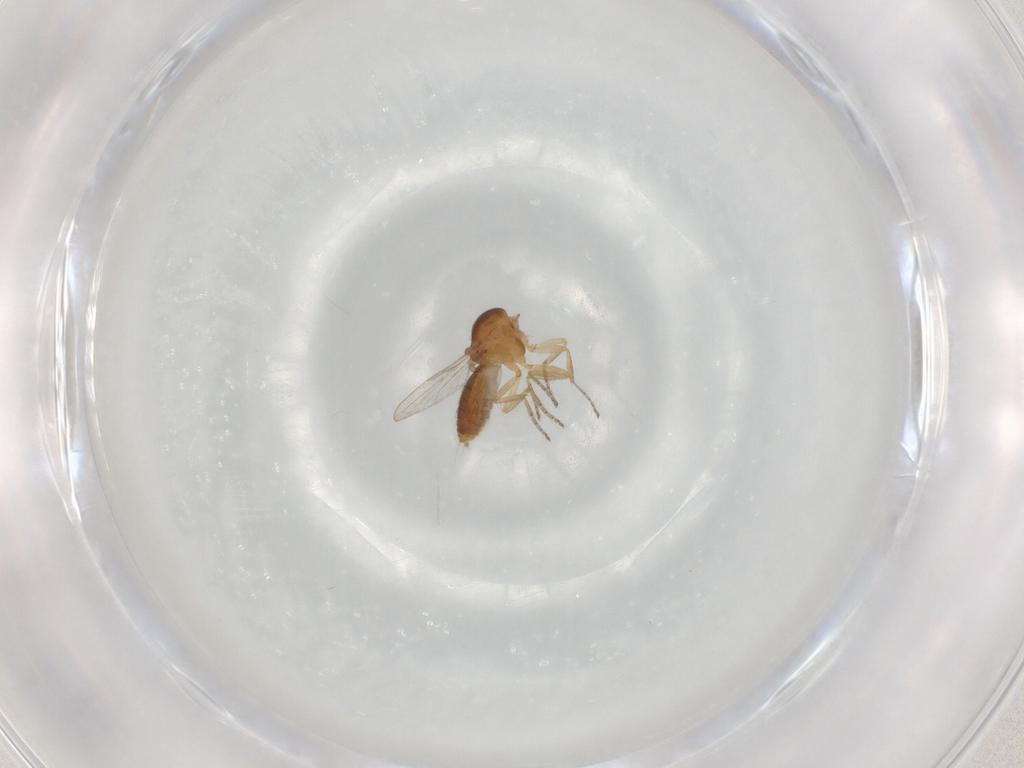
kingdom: Animalia
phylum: Arthropoda
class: Insecta
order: Diptera
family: Ceratopogonidae
